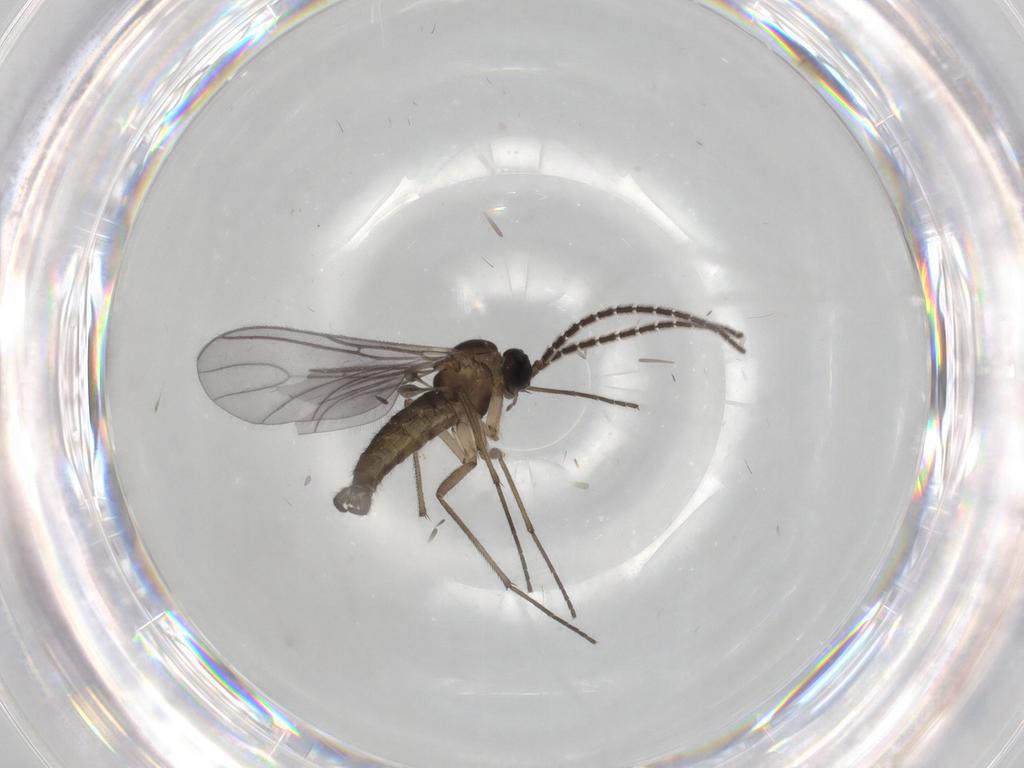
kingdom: Animalia
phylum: Arthropoda
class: Insecta
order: Diptera
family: Sciaridae
